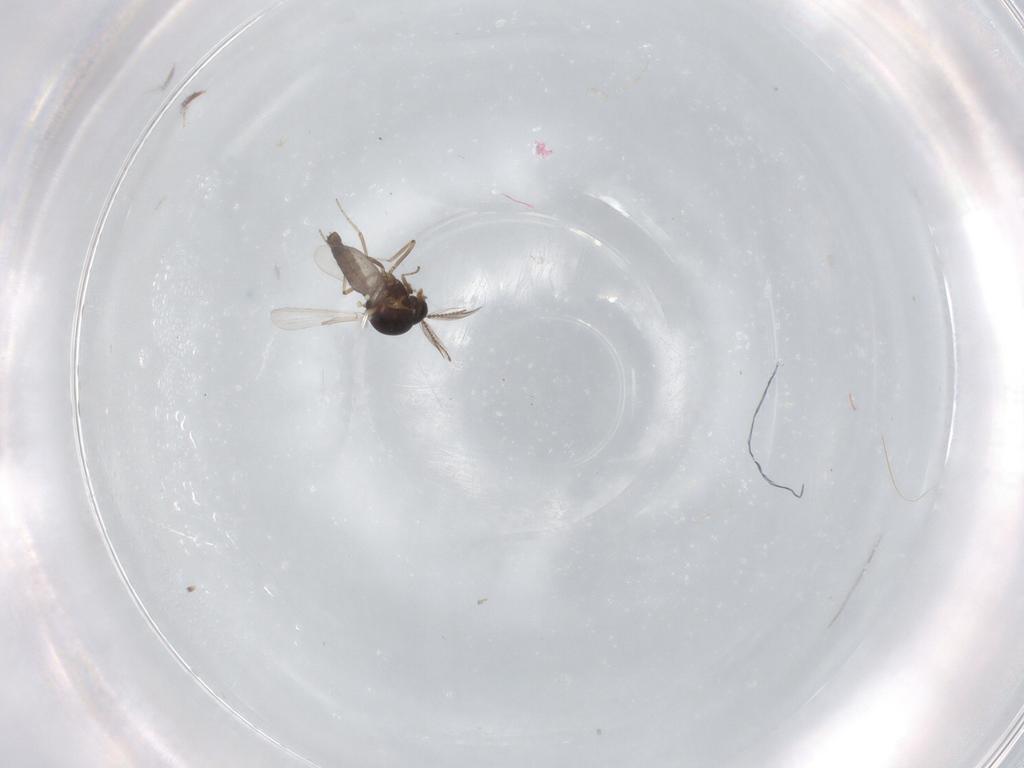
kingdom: Animalia
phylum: Arthropoda
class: Insecta
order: Diptera
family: Ceratopogonidae
